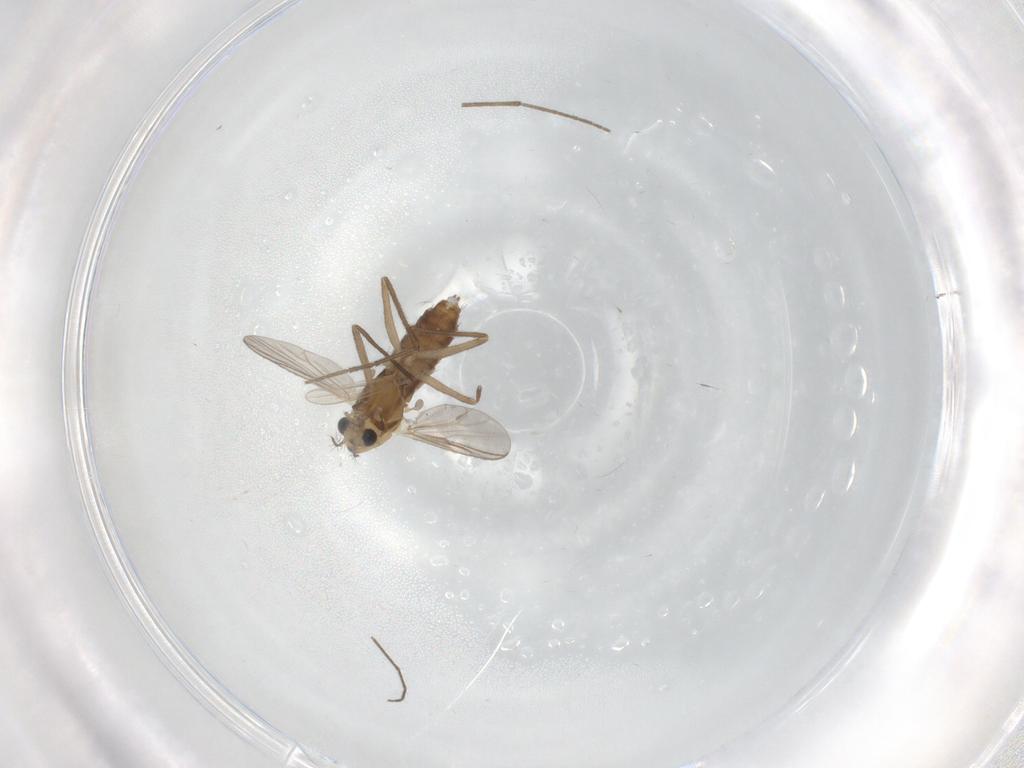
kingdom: Animalia
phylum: Arthropoda
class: Insecta
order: Diptera
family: Chironomidae
